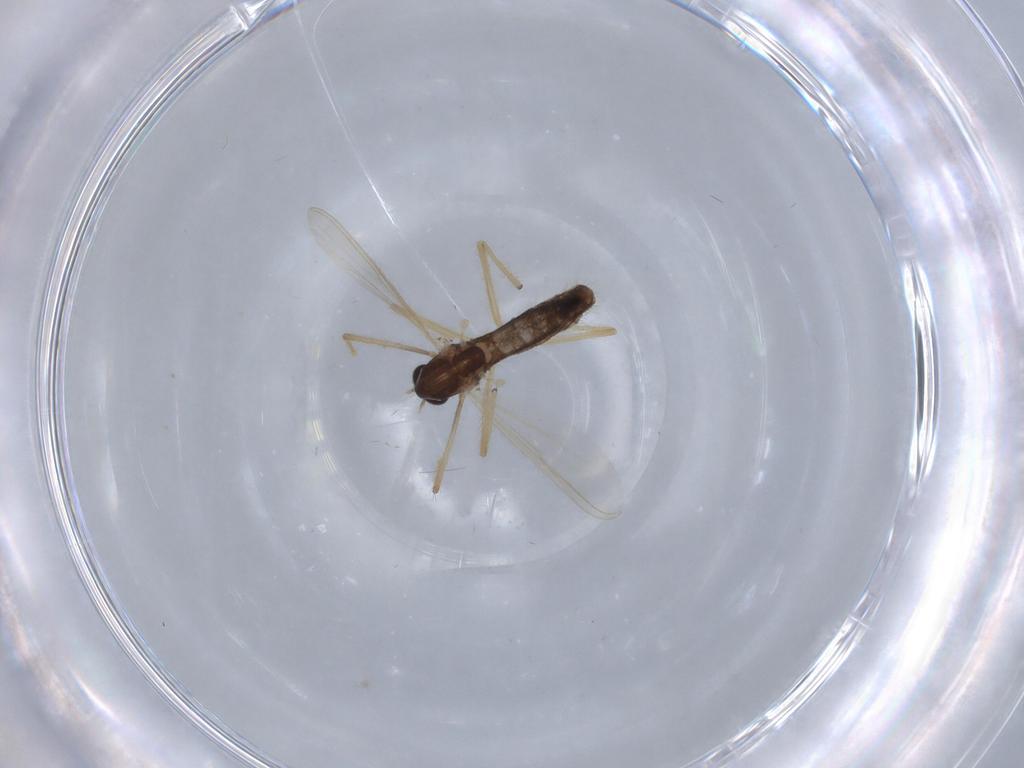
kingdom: Animalia
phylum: Arthropoda
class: Insecta
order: Diptera
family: Chironomidae
